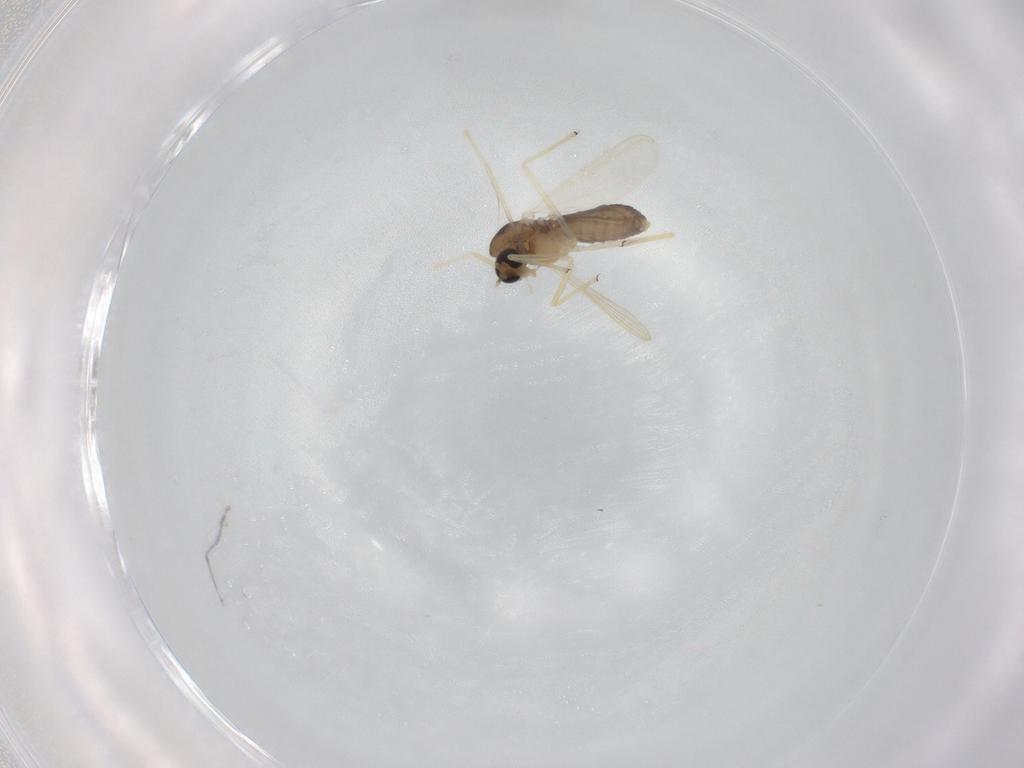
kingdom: Animalia
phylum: Arthropoda
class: Insecta
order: Diptera
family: Chironomidae
